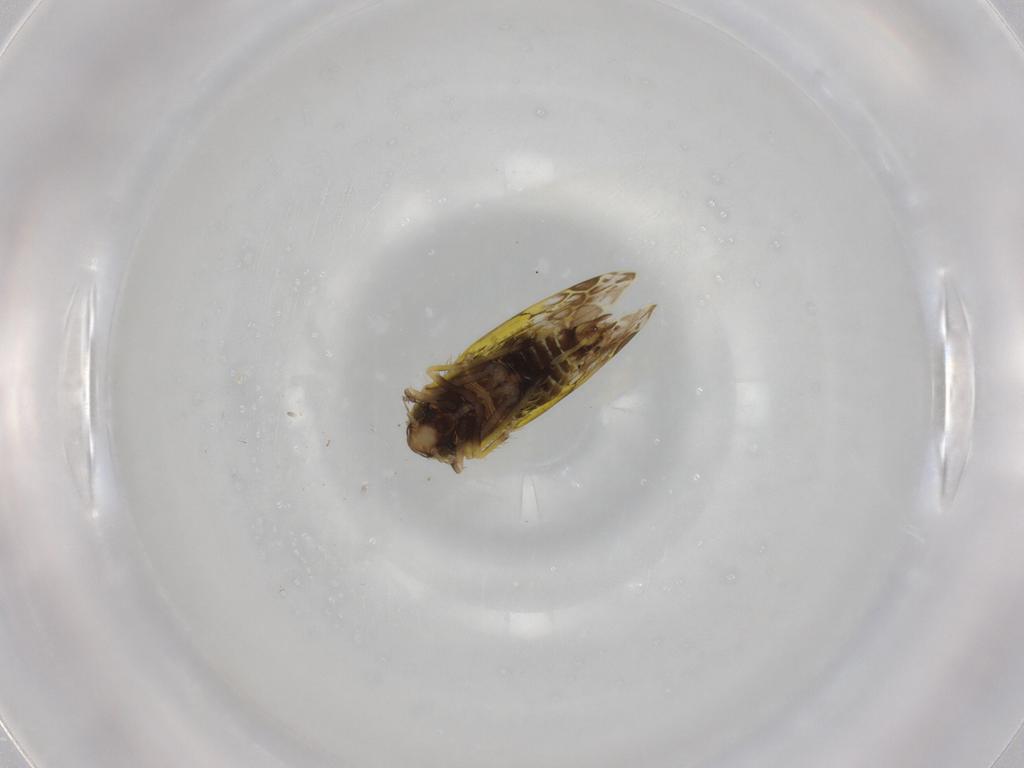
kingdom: Animalia
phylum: Arthropoda
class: Insecta
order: Hemiptera
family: Cicadellidae
